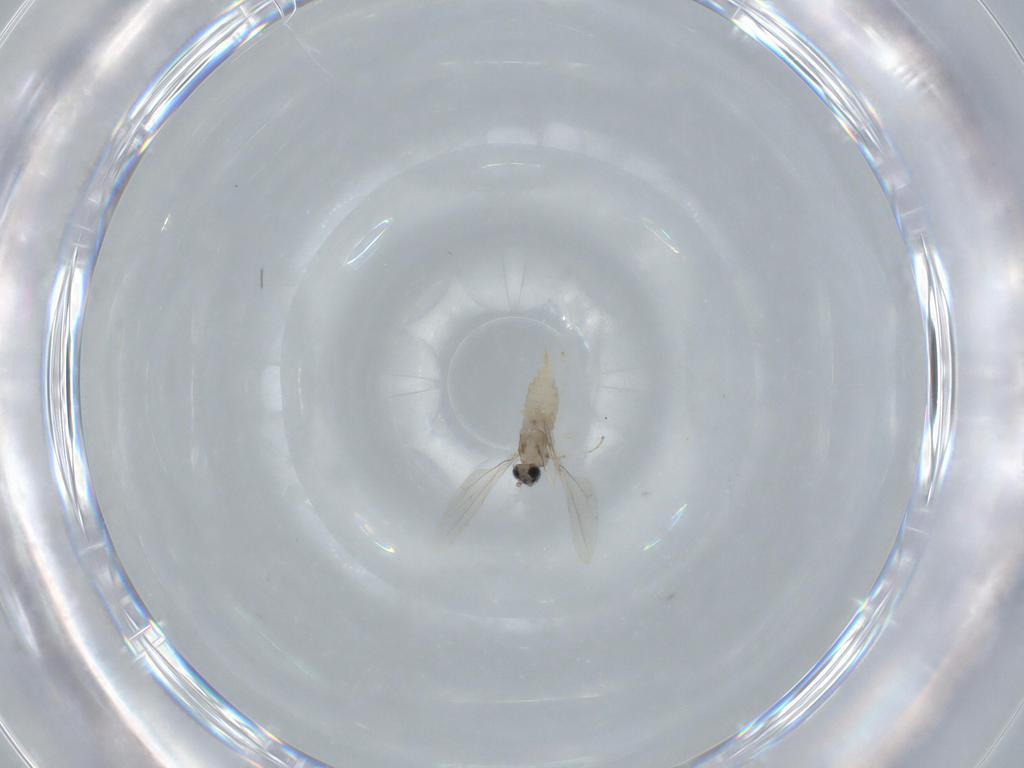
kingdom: Animalia
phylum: Arthropoda
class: Insecta
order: Diptera
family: Cecidomyiidae
